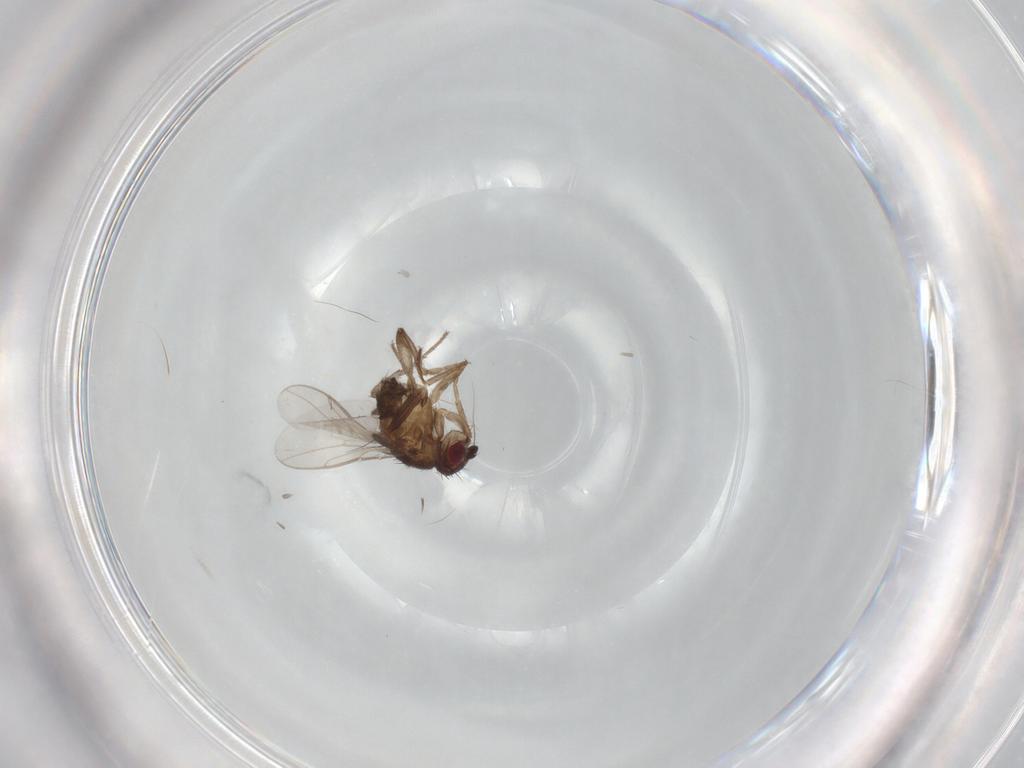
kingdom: Animalia
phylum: Arthropoda
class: Insecta
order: Diptera
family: Sphaeroceridae
